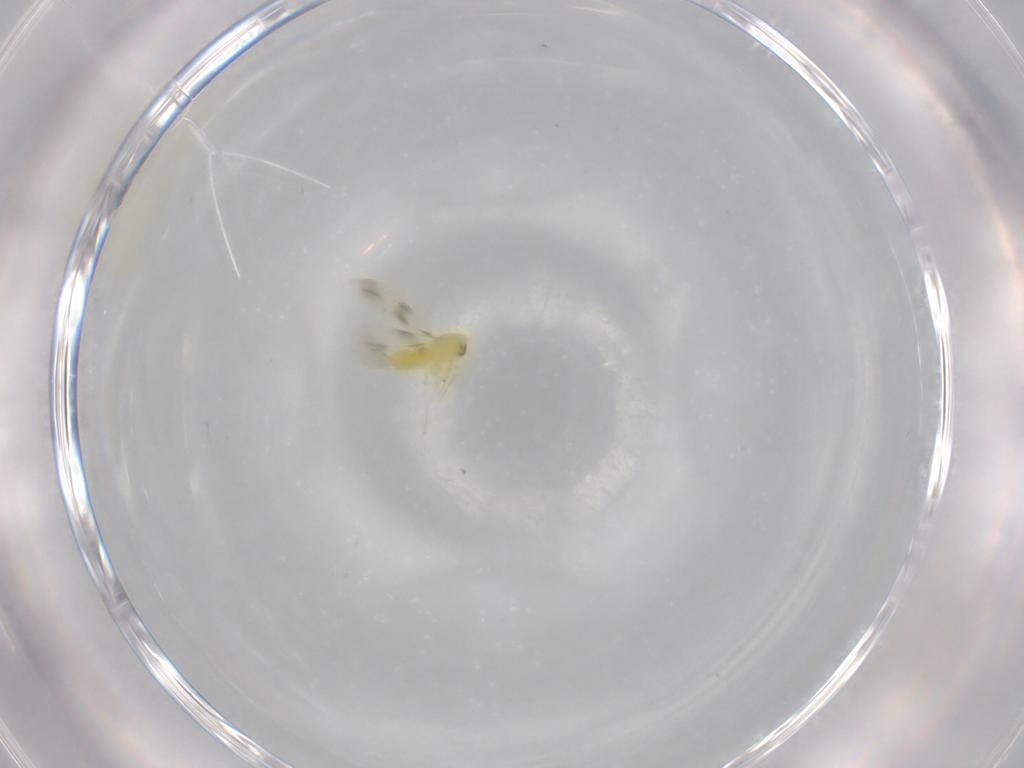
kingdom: Animalia
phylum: Arthropoda
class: Insecta
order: Hemiptera
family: Aleyrodidae
